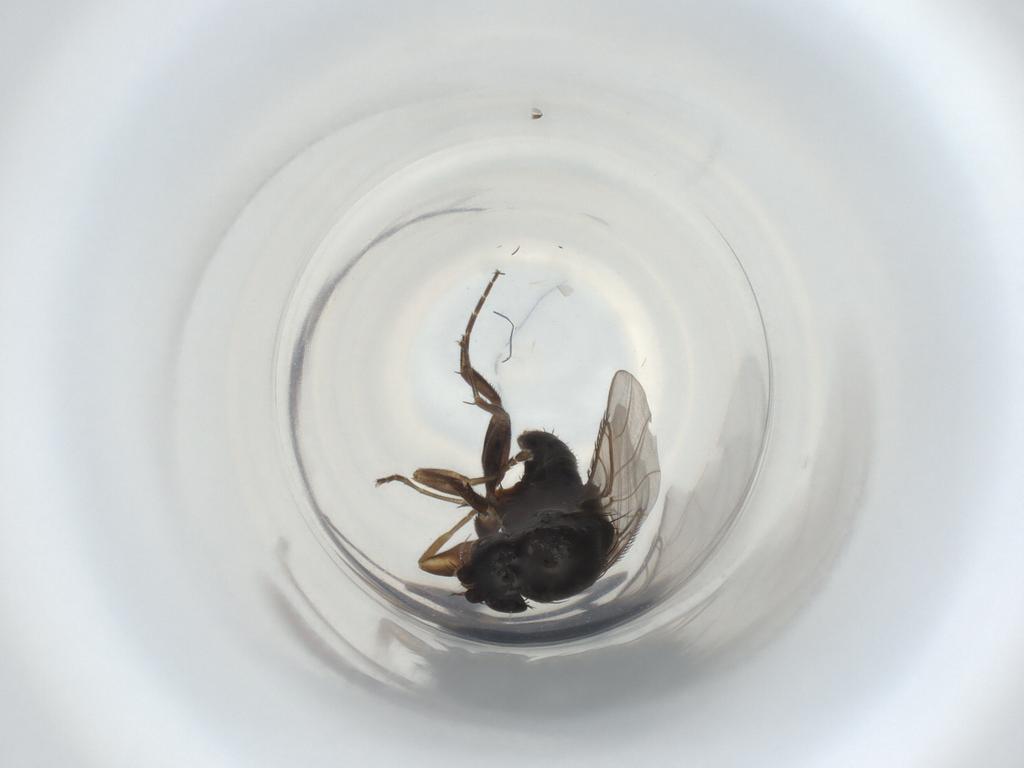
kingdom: Animalia
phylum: Arthropoda
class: Insecta
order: Diptera
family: Phoridae
